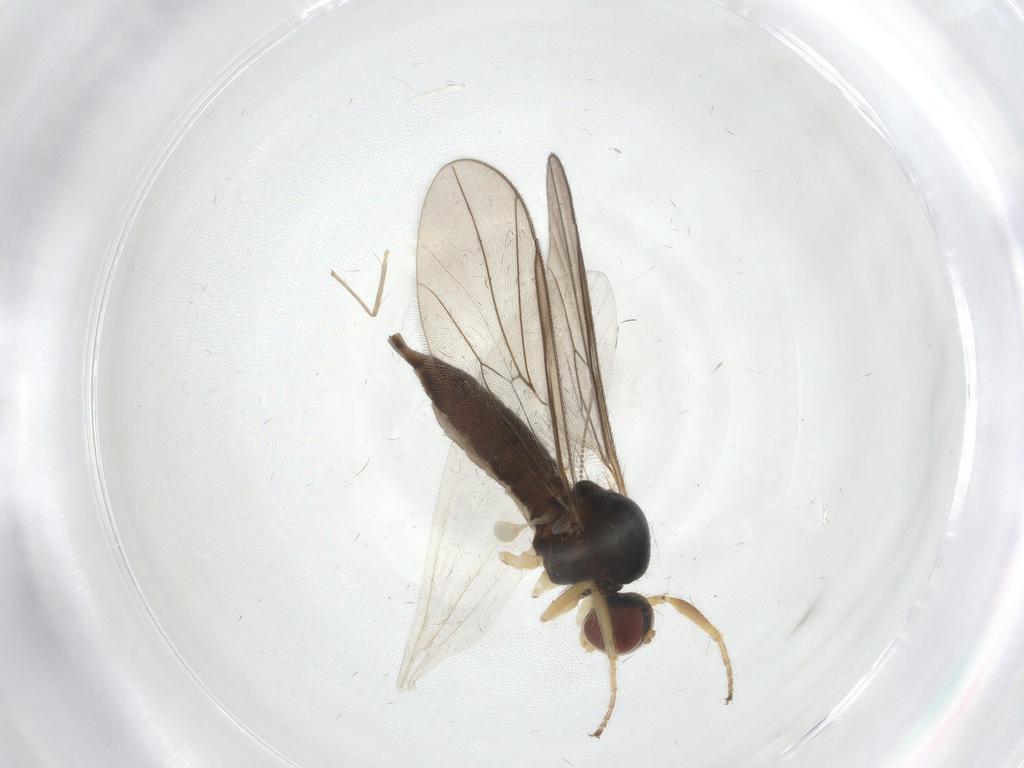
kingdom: Animalia
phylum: Arthropoda
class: Insecta
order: Diptera
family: Hybotidae
